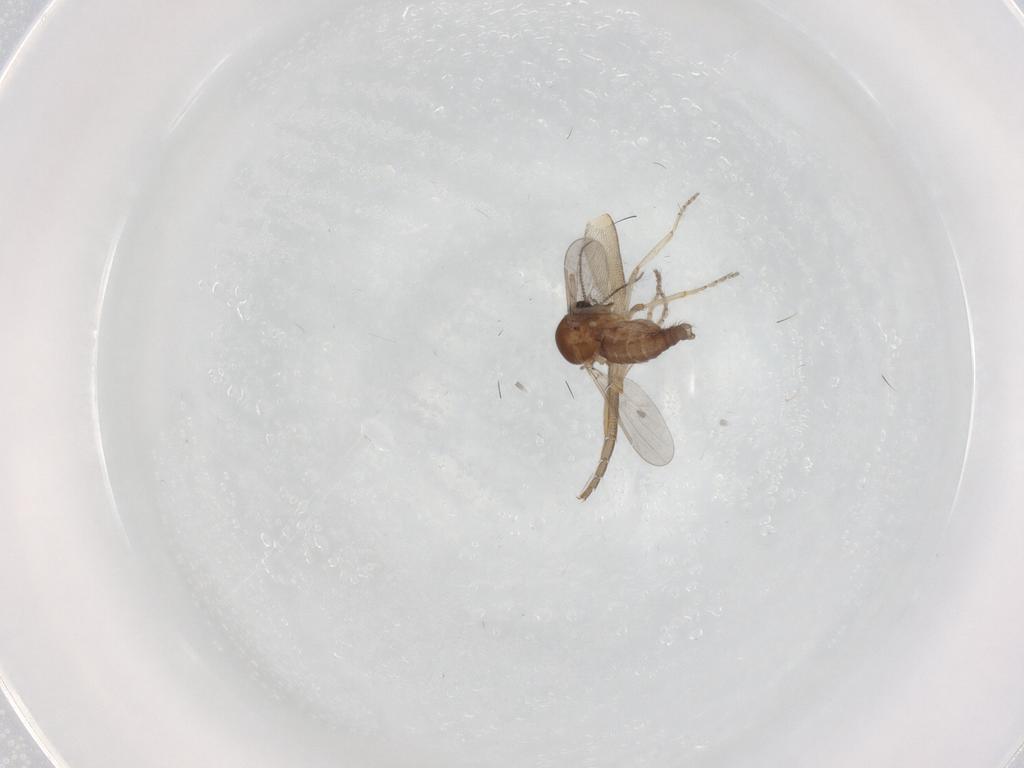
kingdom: Animalia
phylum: Arthropoda
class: Insecta
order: Diptera
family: Ceratopogonidae
